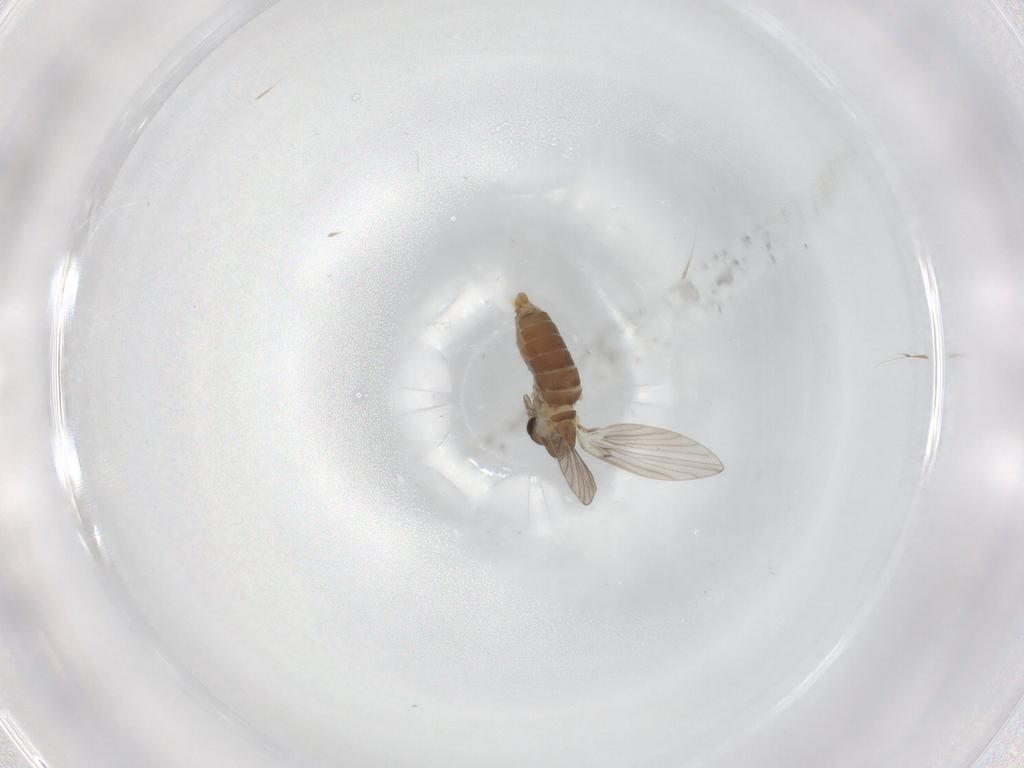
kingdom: Animalia
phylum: Arthropoda
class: Insecta
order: Diptera
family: Psychodidae
